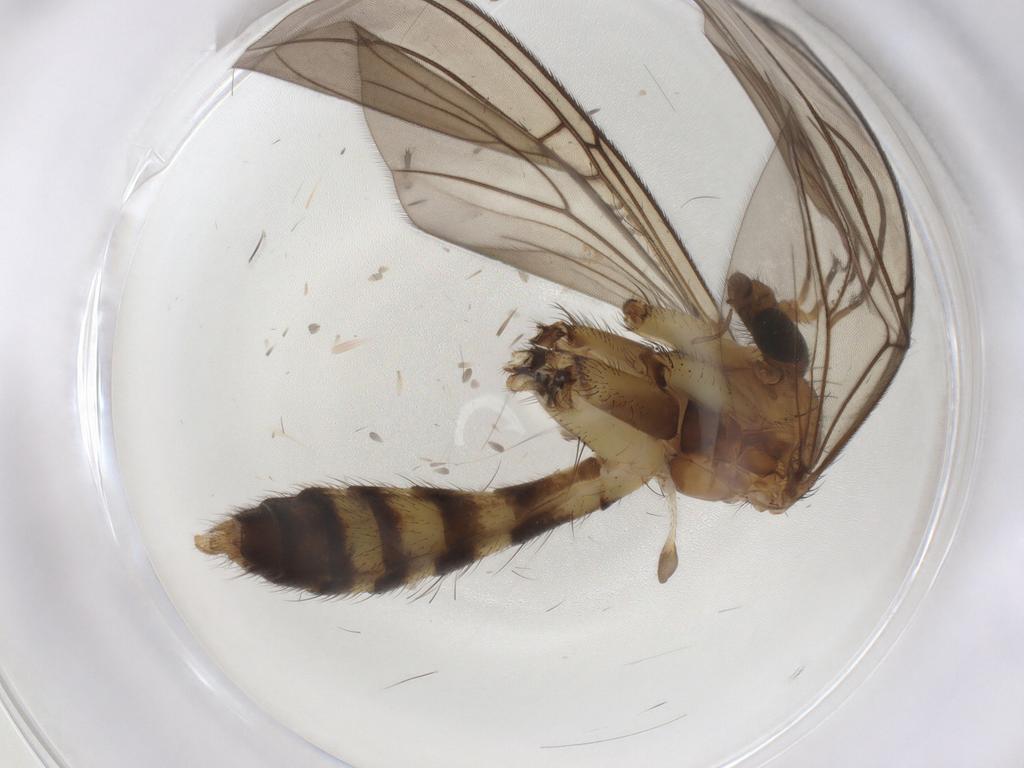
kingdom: Animalia
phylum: Arthropoda
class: Insecta
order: Diptera
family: Mycetophilidae
